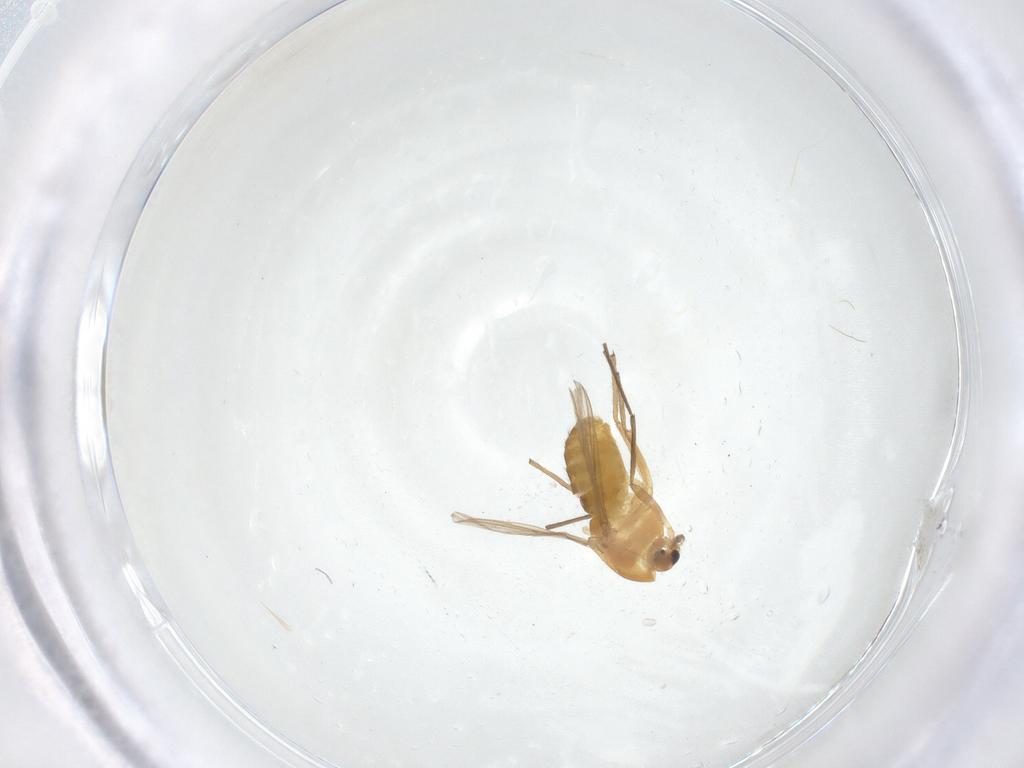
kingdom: Animalia
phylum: Arthropoda
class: Insecta
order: Diptera
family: Chironomidae
